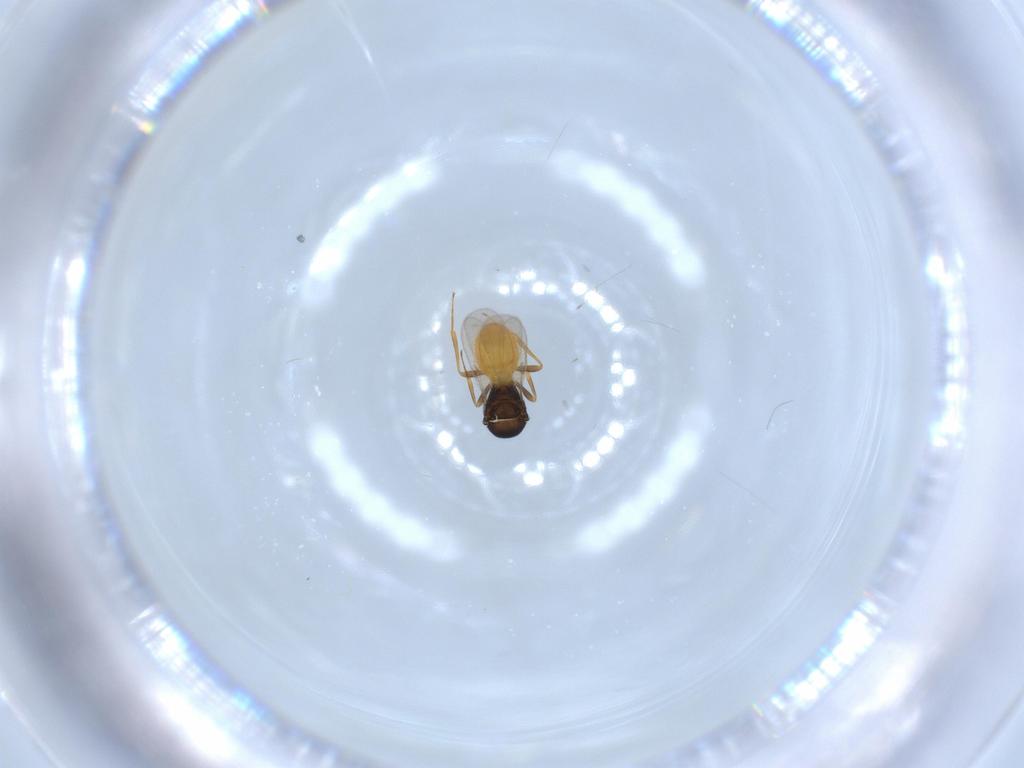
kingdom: Animalia
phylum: Arthropoda
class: Insecta
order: Hymenoptera
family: Scelionidae
